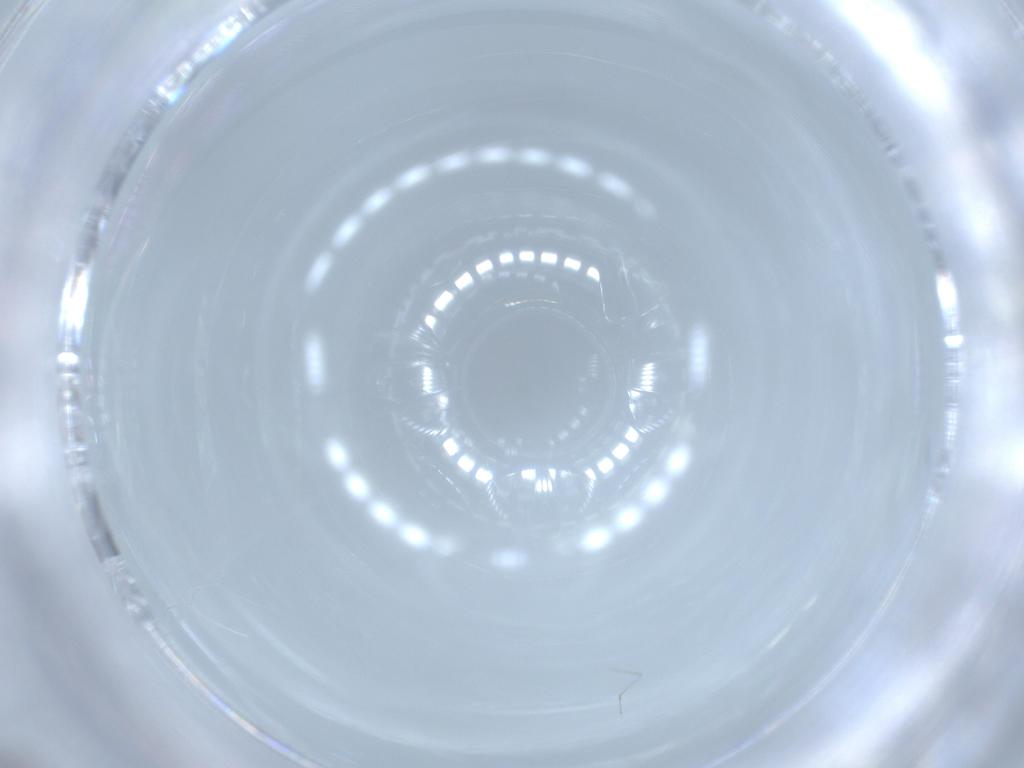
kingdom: Animalia
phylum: Arthropoda
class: Insecta
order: Diptera
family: Cecidomyiidae
